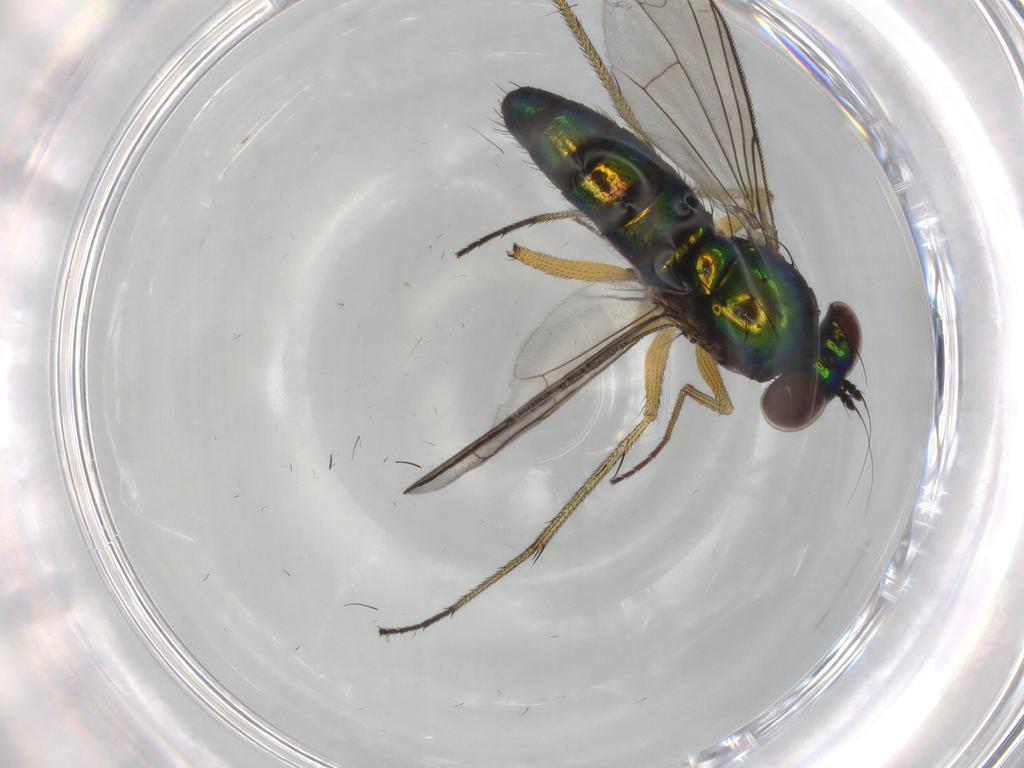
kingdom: Animalia
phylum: Arthropoda
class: Insecta
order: Diptera
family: Dolichopodidae
